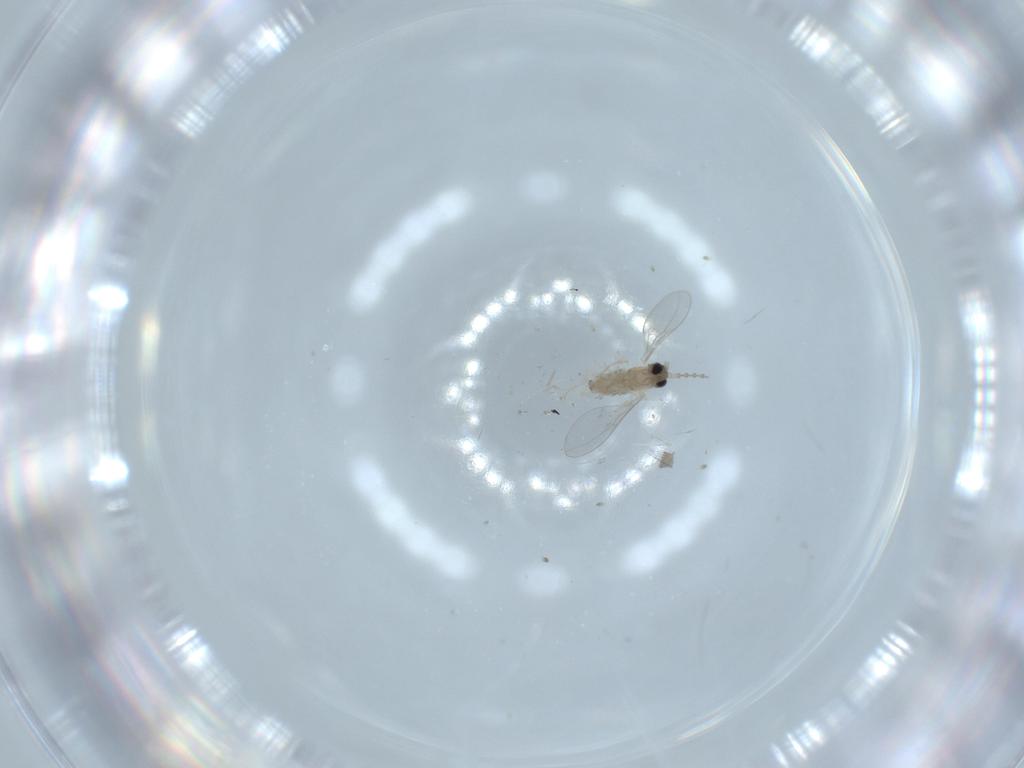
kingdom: Animalia
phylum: Arthropoda
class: Insecta
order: Diptera
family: Cecidomyiidae
